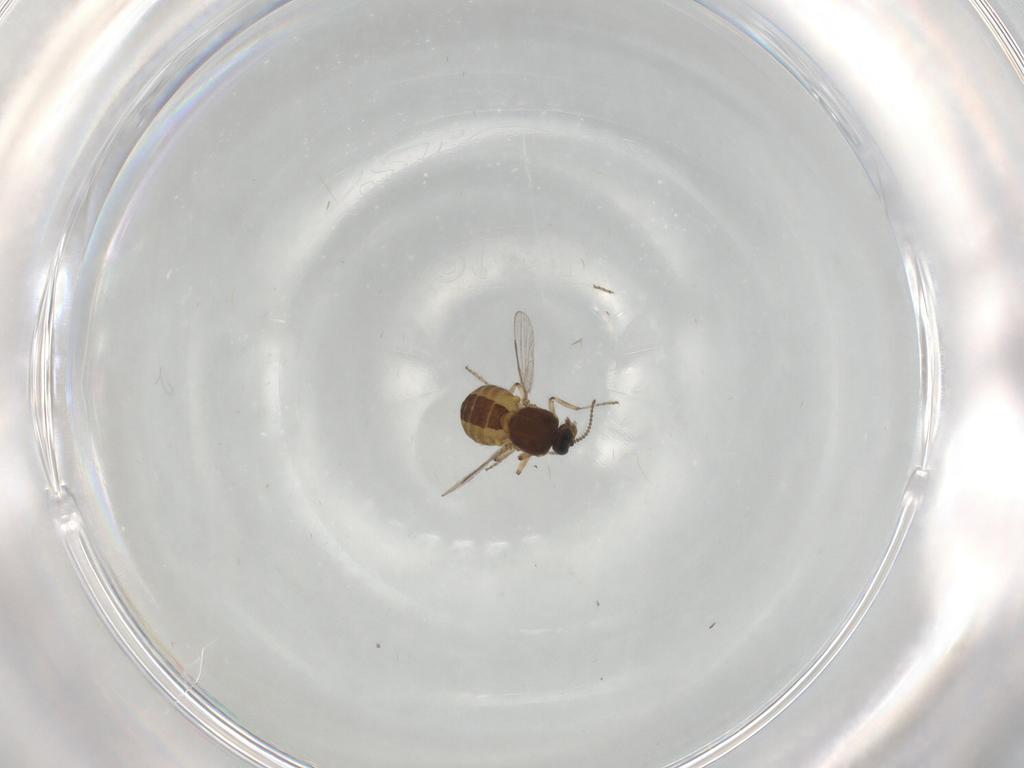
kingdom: Animalia
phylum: Arthropoda
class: Insecta
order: Diptera
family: Ceratopogonidae
